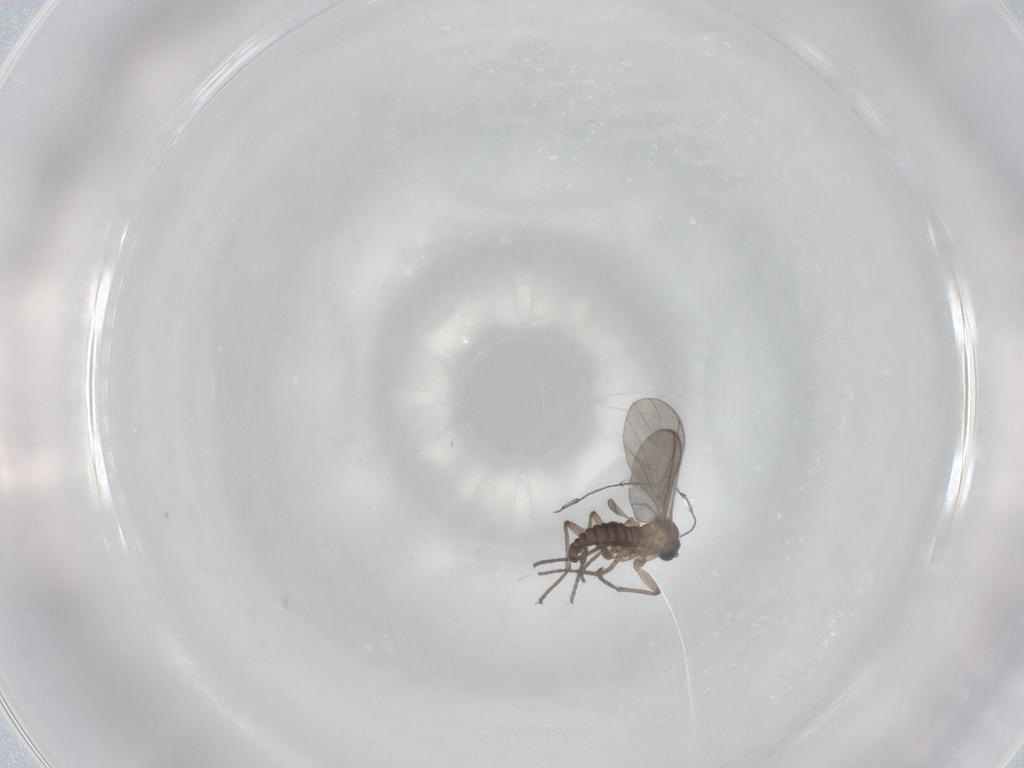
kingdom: Animalia
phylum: Arthropoda
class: Insecta
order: Diptera
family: Sciaridae
